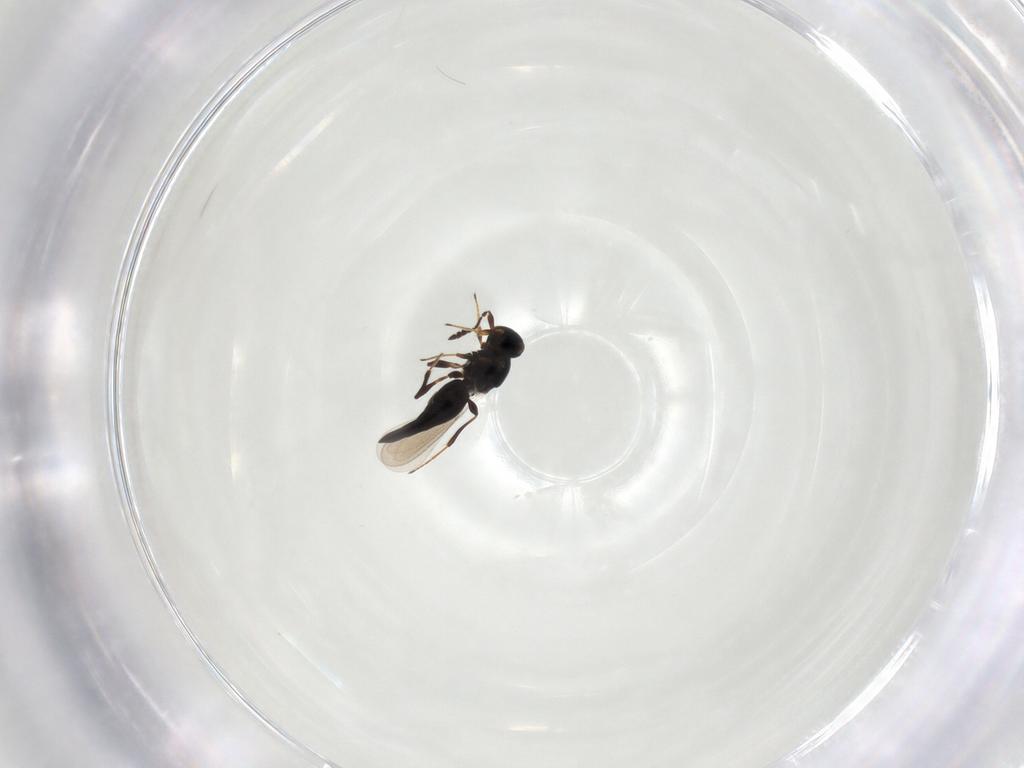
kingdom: Animalia
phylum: Arthropoda
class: Insecta
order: Hymenoptera
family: Platygastridae
